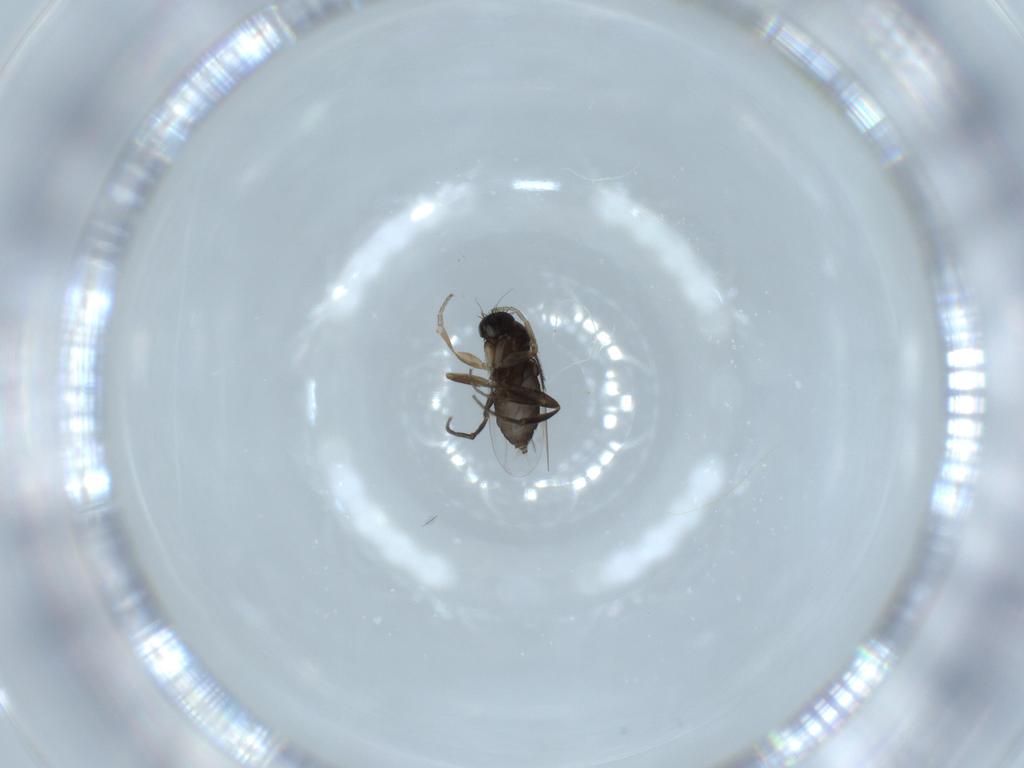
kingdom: Animalia
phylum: Arthropoda
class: Insecta
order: Diptera
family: Phoridae
